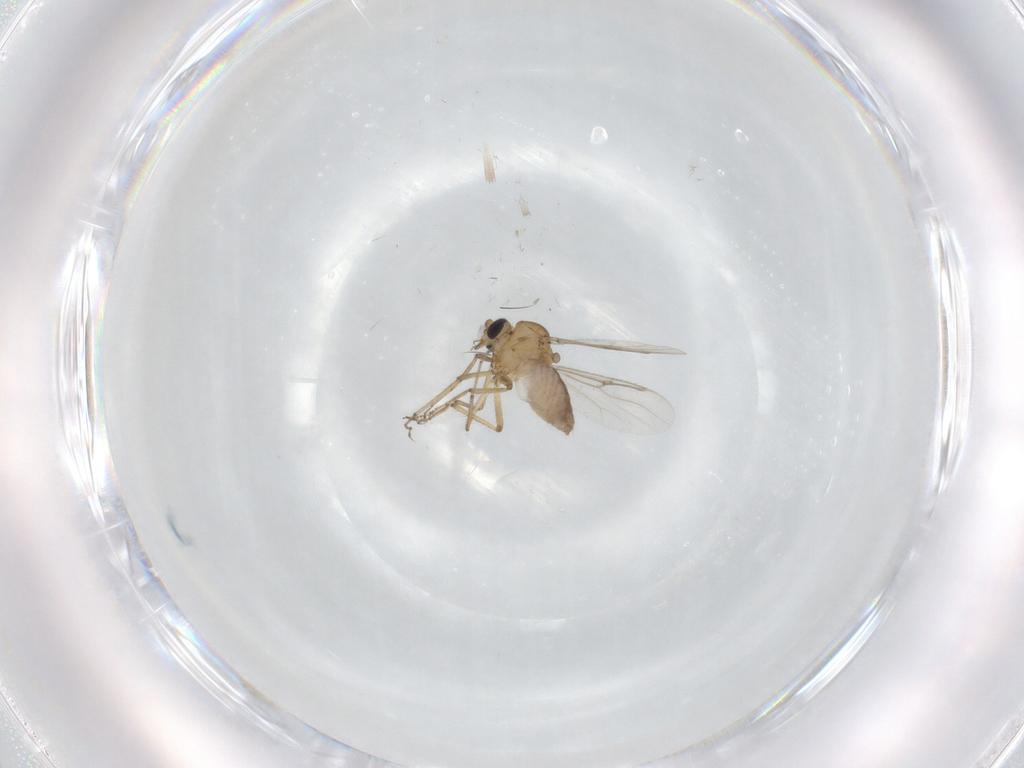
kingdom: Animalia
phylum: Arthropoda
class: Insecta
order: Diptera
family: Cecidomyiidae
